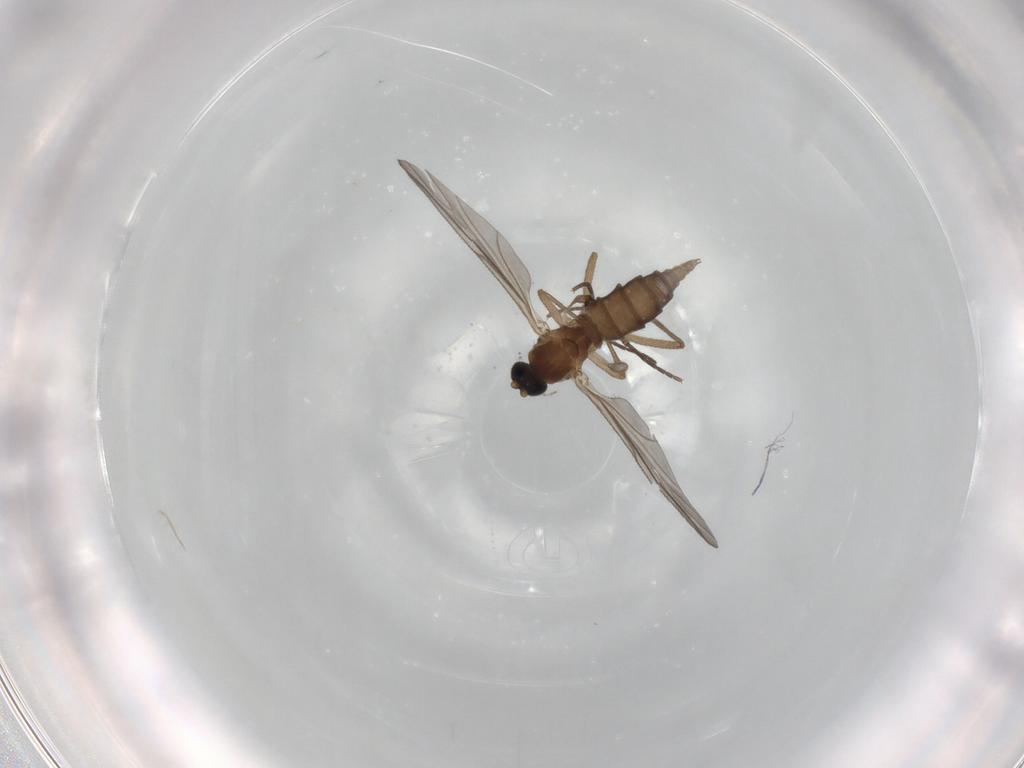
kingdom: Animalia
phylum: Arthropoda
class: Insecta
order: Diptera
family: Sciaridae
